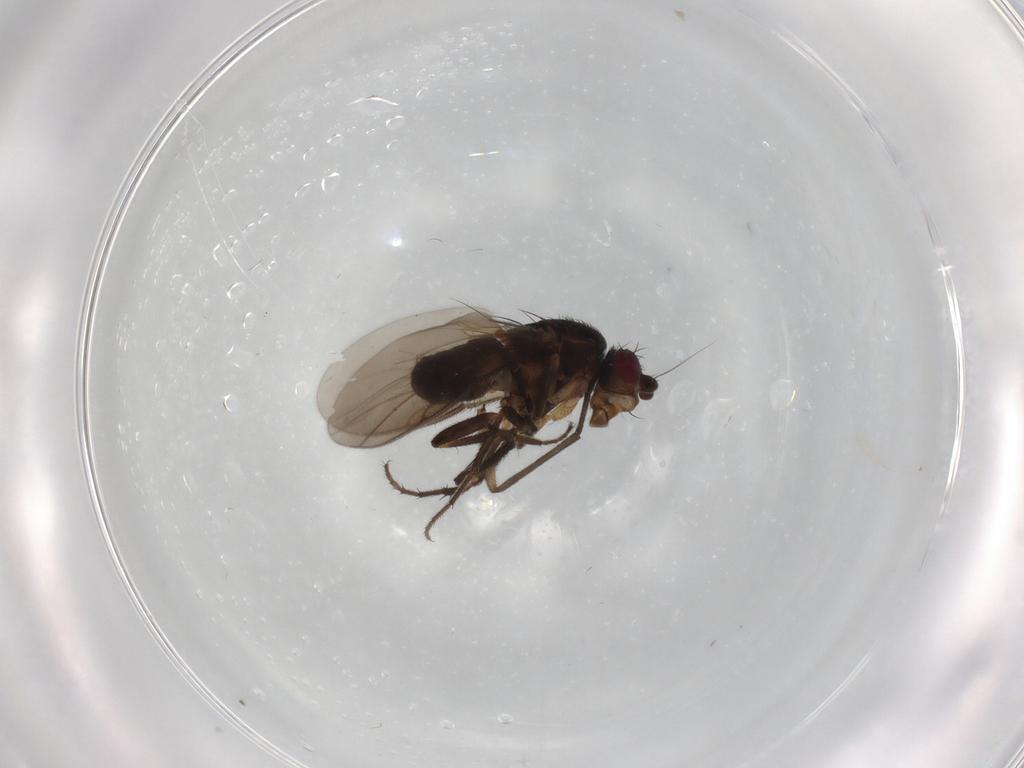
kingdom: Animalia
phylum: Arthropoda
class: Insecta
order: Diptera
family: Sphaeroceridae
